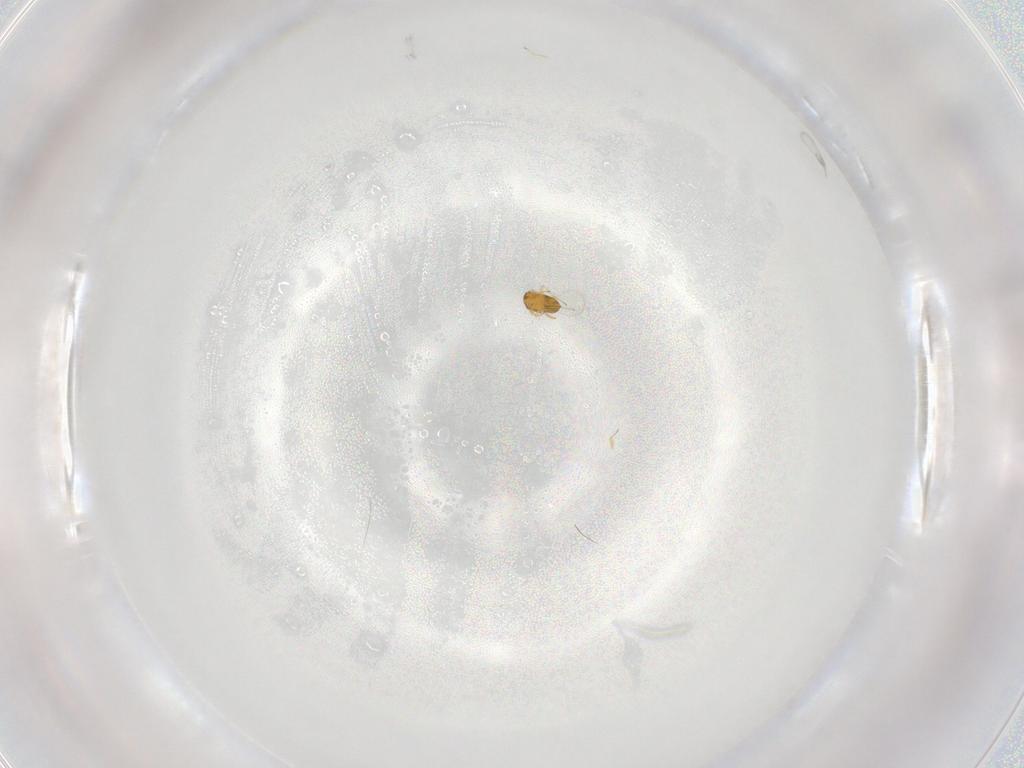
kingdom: Animalia
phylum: Arthropoda
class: Insecta
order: Hymenoptera
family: Trichogrammatidae
